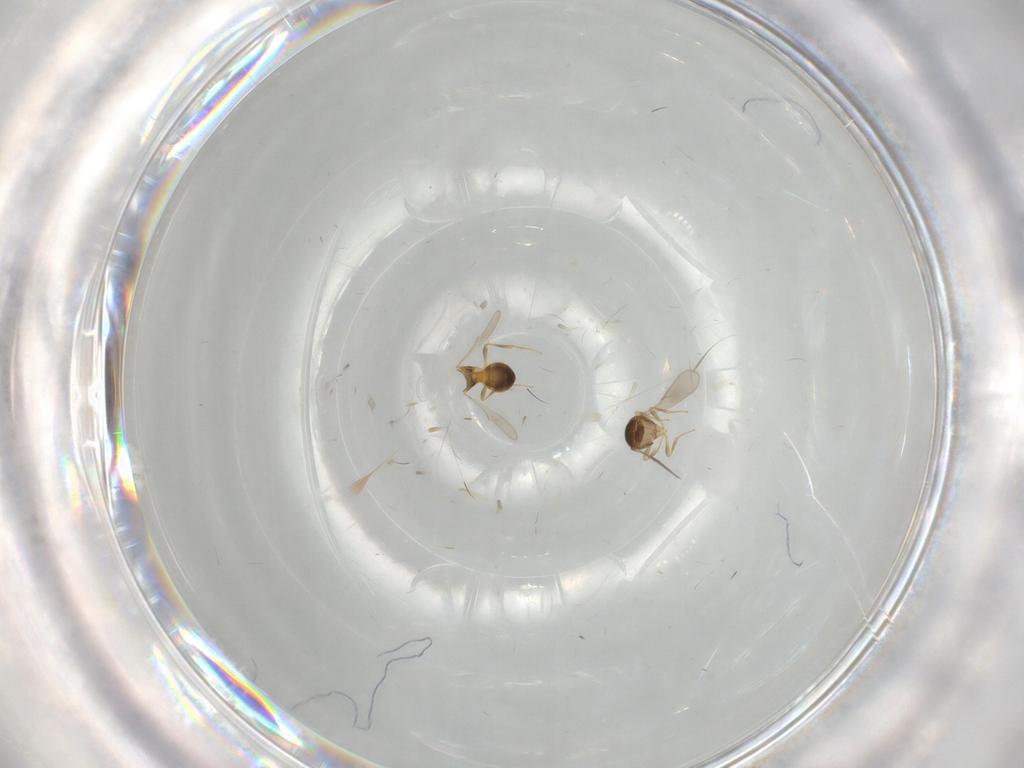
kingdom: Animalia
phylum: Arthropoda
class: Insecta
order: Hymenoptera
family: Scelionidae
